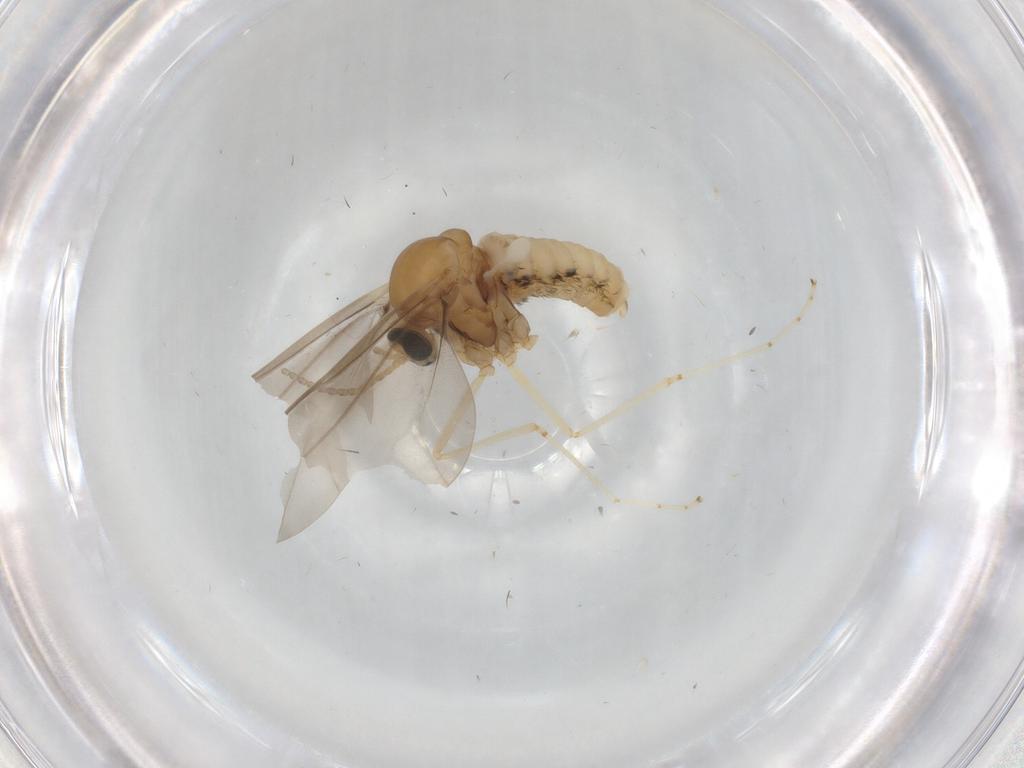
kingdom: Animalia
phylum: Arthropoda
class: Insecta
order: Diptera
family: Cecidomyiidae
